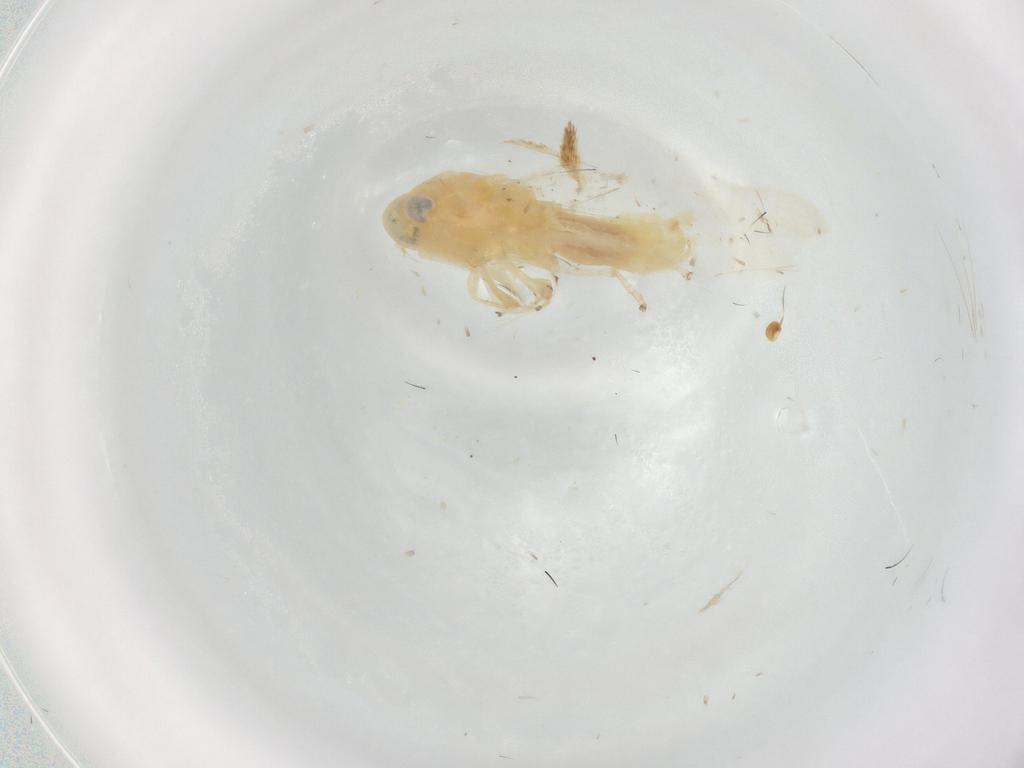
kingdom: Animalia
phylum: Arthropoda
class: Insecta
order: Hemiptera
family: Cicadellidae
